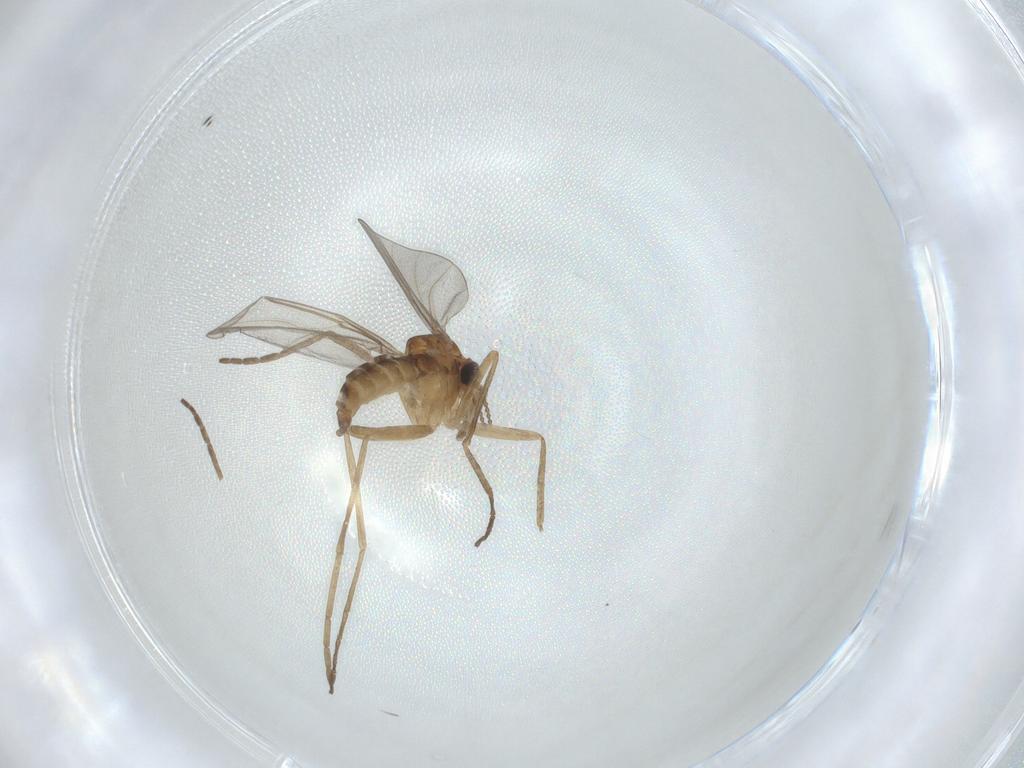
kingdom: Animalia
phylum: Arthropoda
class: Insecta
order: Diptera
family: Cecidomyiidae
